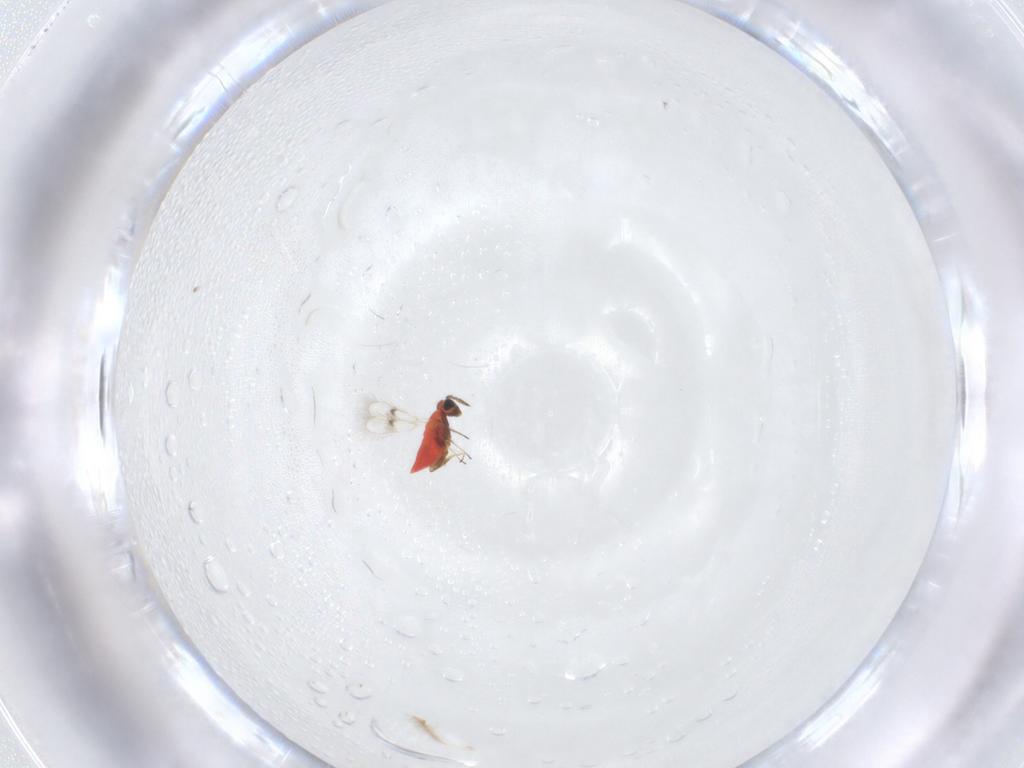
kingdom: Animalia
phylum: Arthropoda
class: Insecta
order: Hymenoptera
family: Trichogrammatidae
